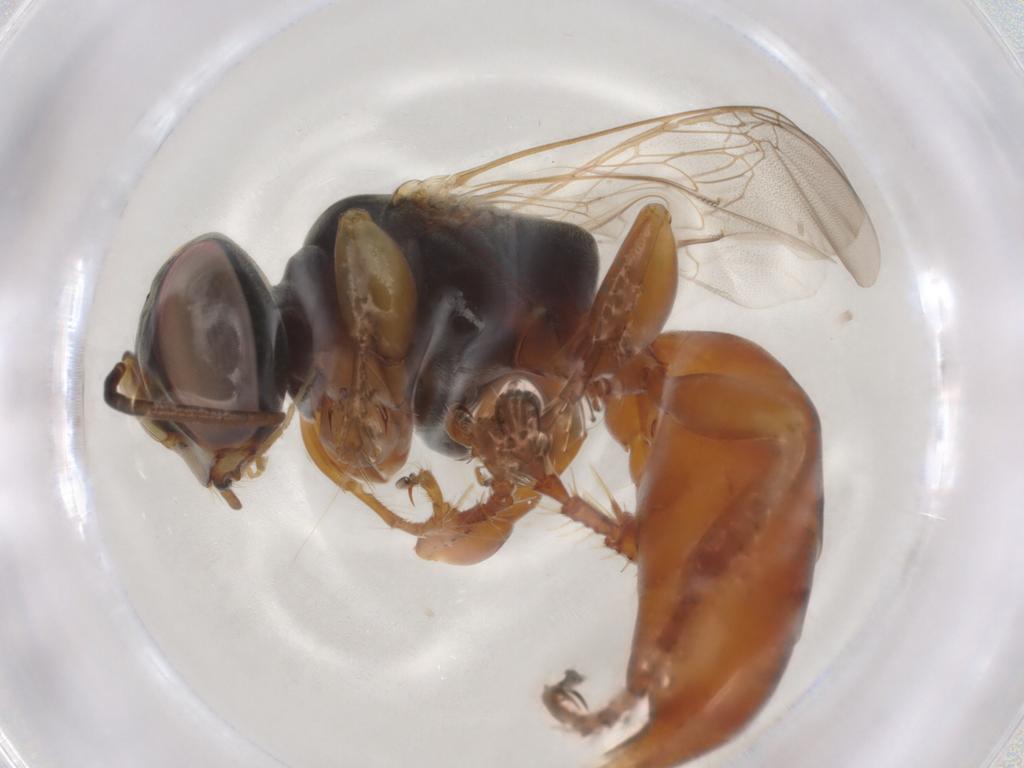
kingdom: Animalia
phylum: Arthropoda
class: Insecta
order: Hymenoptera
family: Crabronidae
